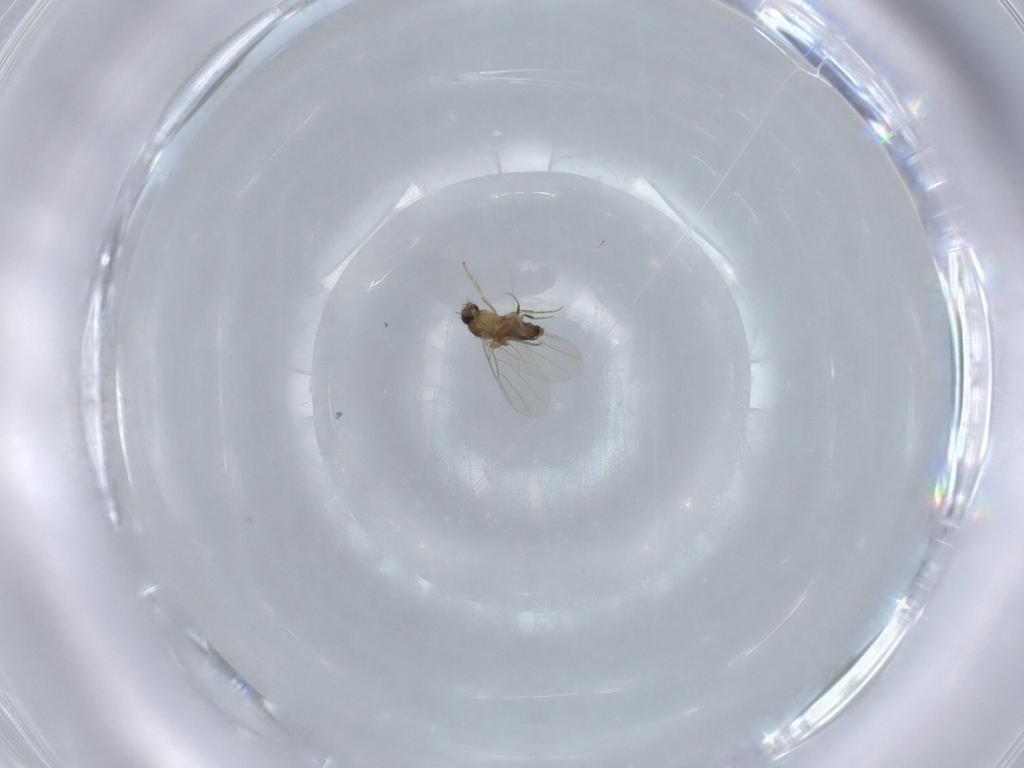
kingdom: Animalia
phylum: Arthropoda
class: Insecta
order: Diptera
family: Phoridae
